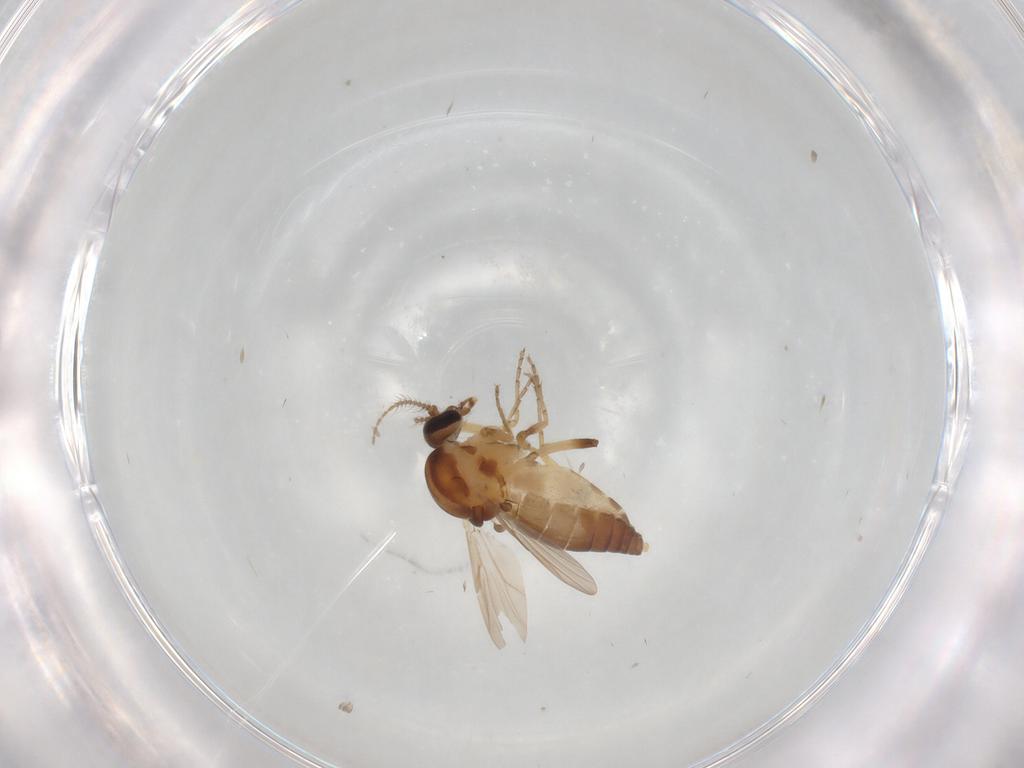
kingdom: Animalia
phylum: Arthropoda
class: Insecta
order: Diptera
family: Ceratopogonidae
